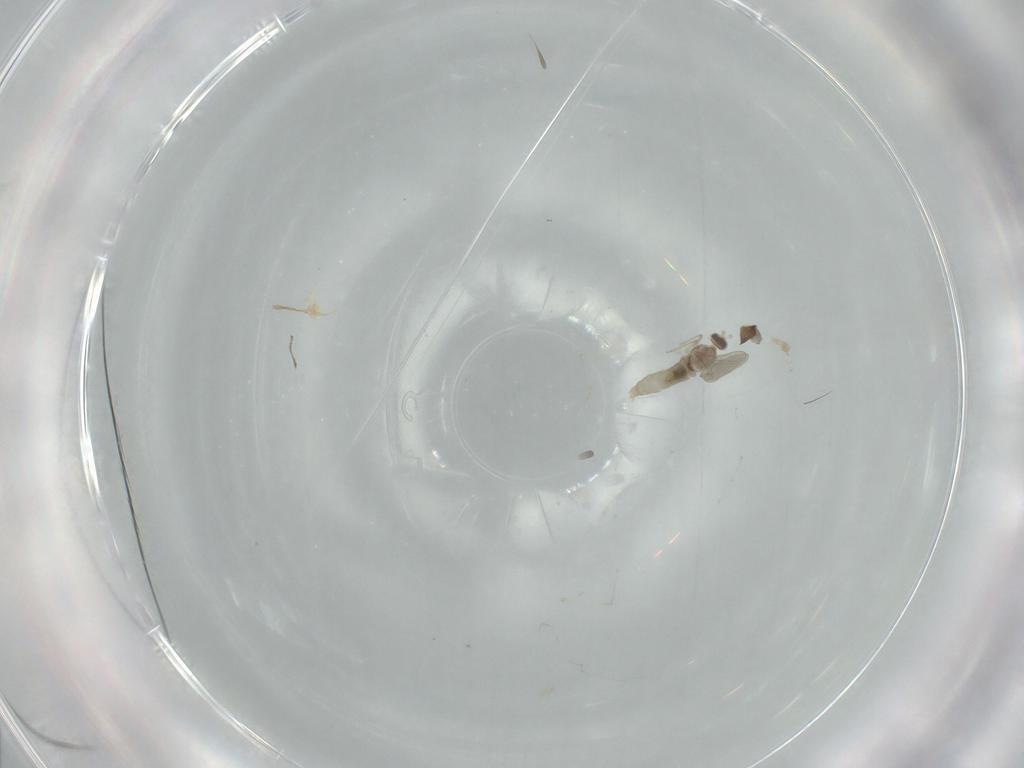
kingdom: Animalia
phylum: Arthropoda
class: Insecta
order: Diptera
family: Cecidomyiidae
